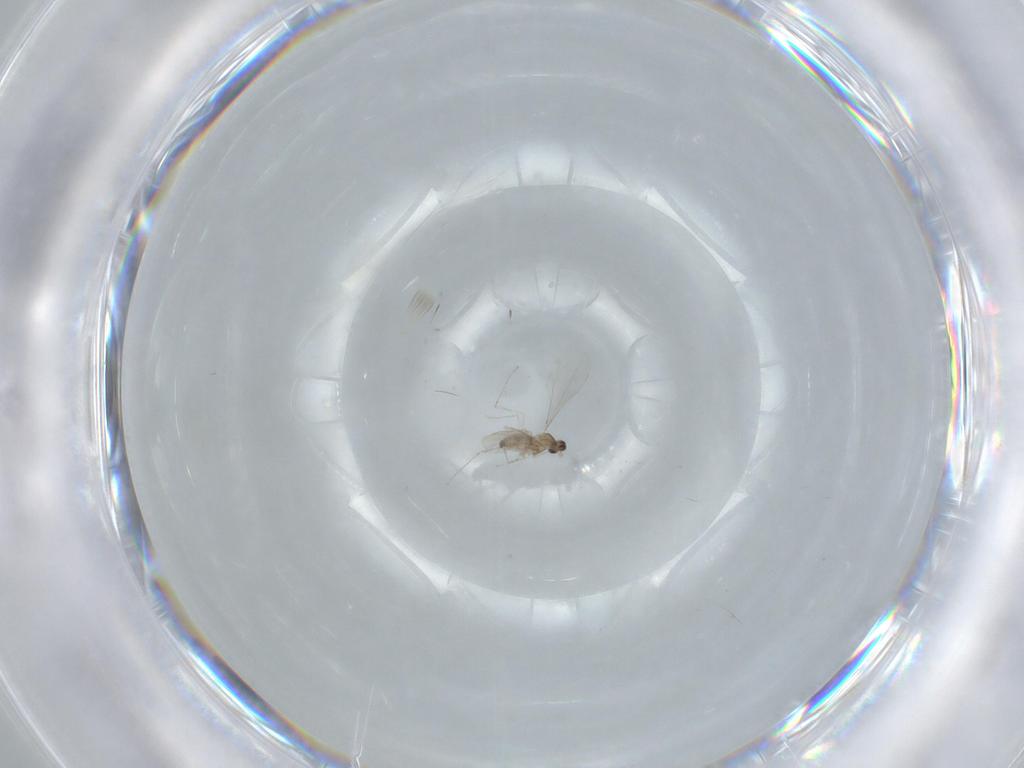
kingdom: Animalia
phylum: Arthropoda
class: Insecta
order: Diptera
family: Cecidomyiidae
